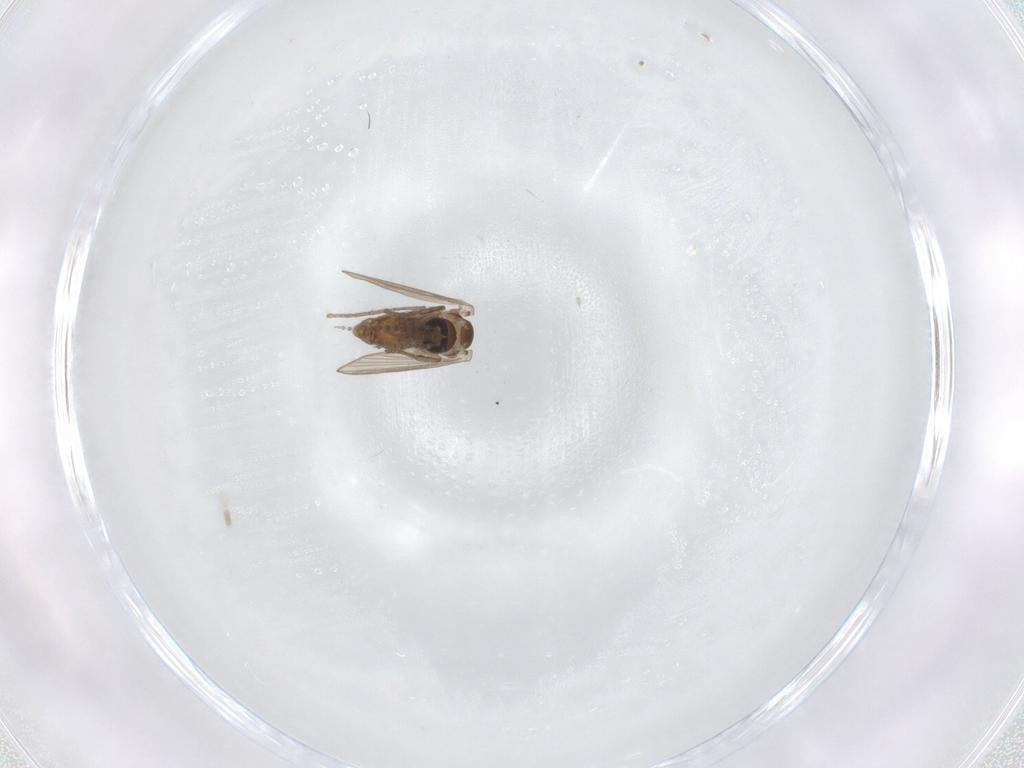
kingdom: Animalia
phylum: Arthropoda
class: Insecta
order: Diptera
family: Psychodidae
